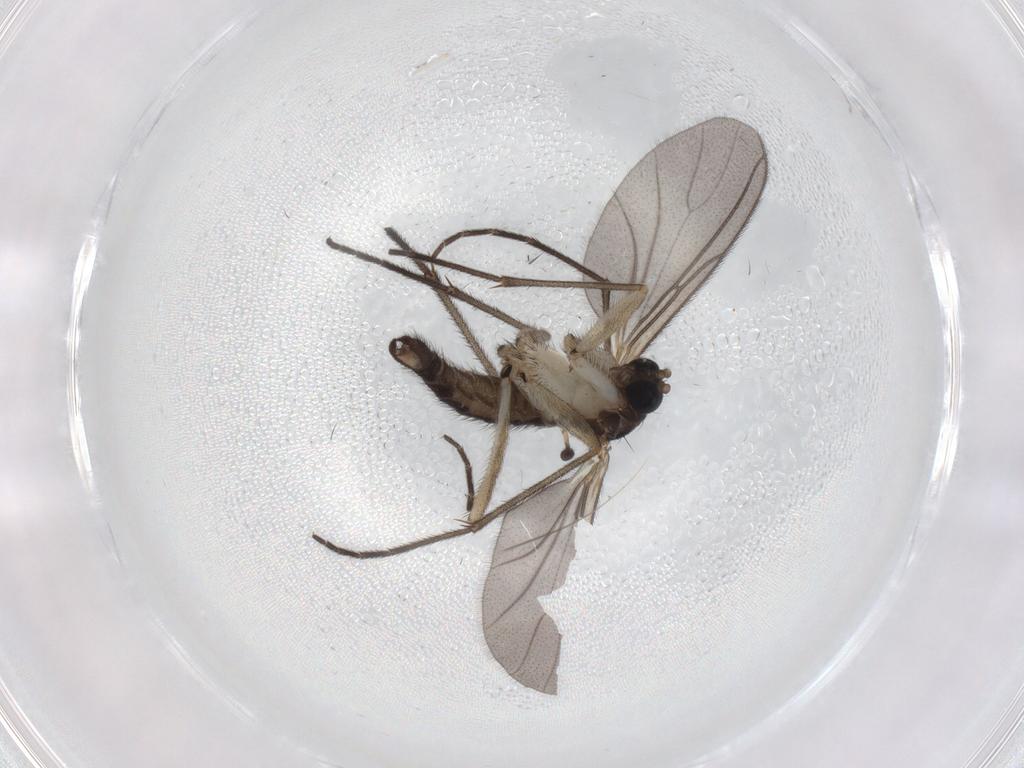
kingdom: Animalia
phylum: Arthropoda
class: Insecta
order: Diptera
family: Sciaridae
